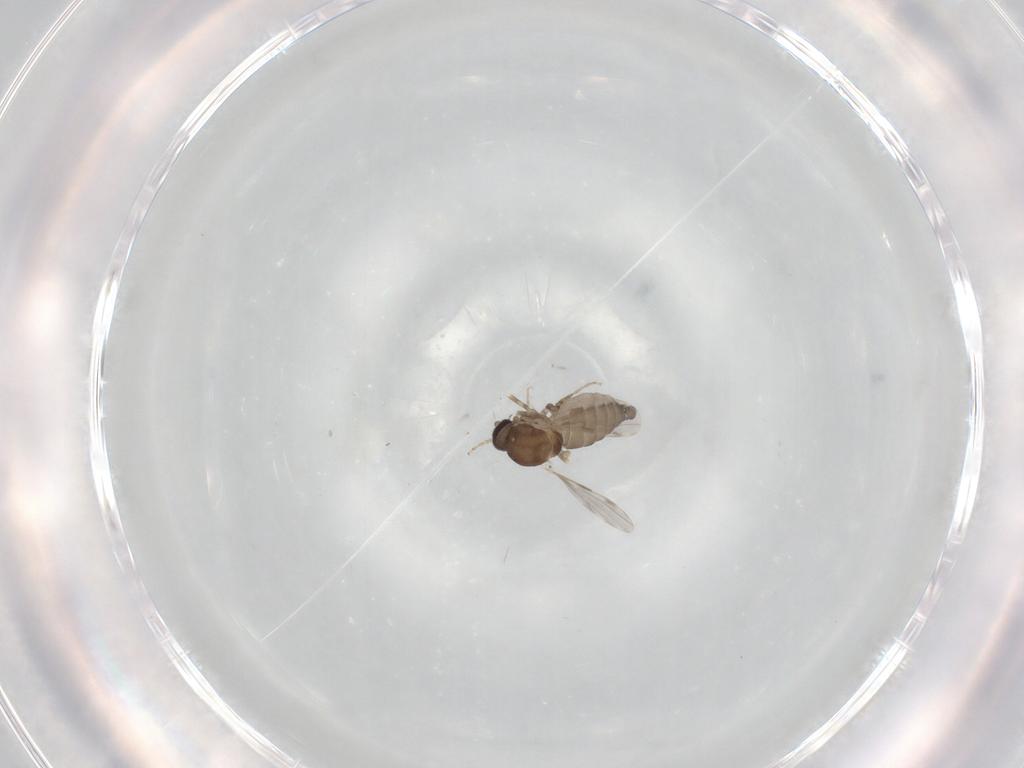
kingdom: Animalia
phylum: Arthropoda
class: Insecta
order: Diptera
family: Ceratopogonidae
